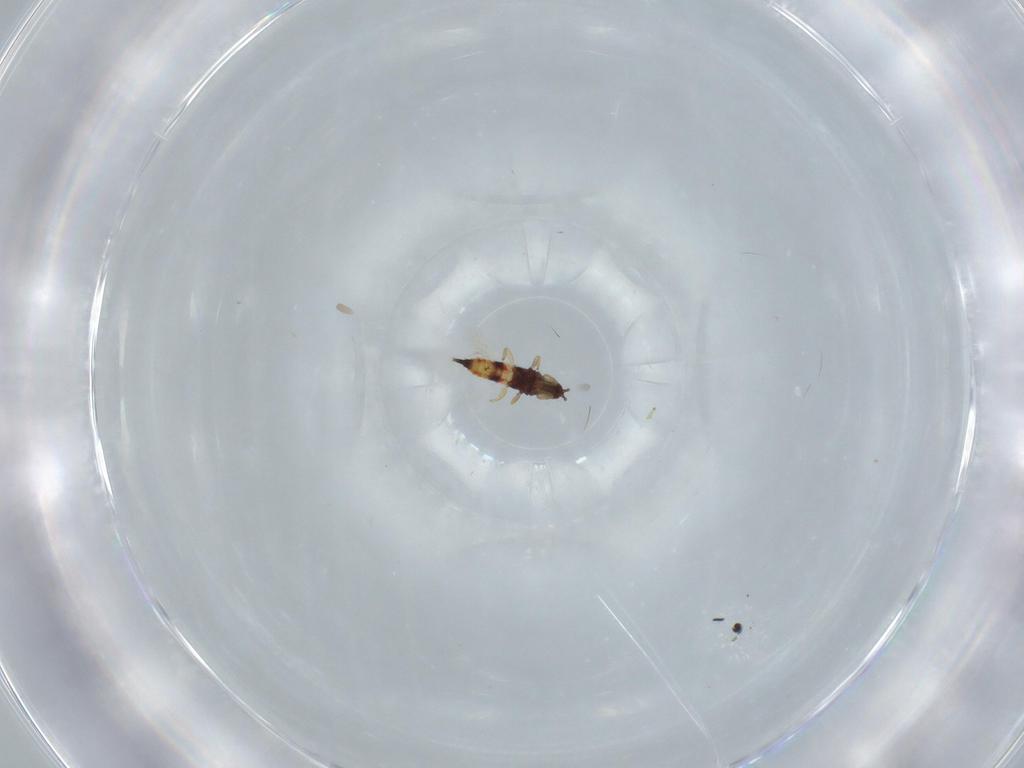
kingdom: Animalia
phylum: Arthropoda
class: Insecta
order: Thysanoptera
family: Phlaeothripidae
